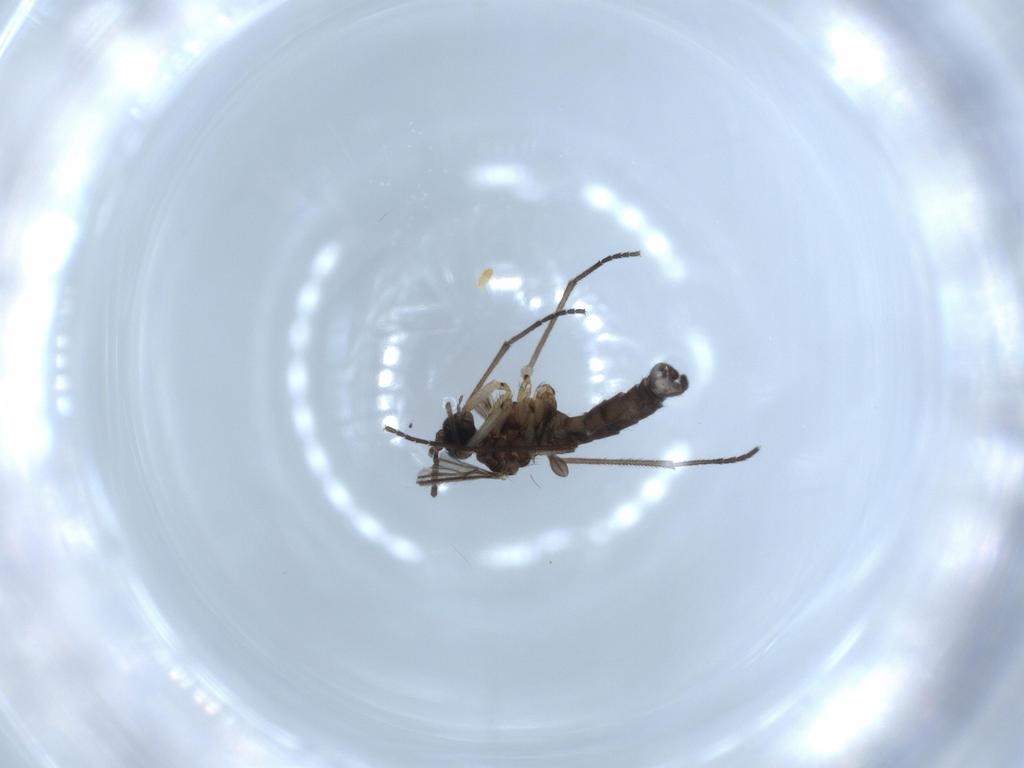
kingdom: Animalia
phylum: Arthropoda
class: Insecta
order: Diptera
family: Sciaridae
